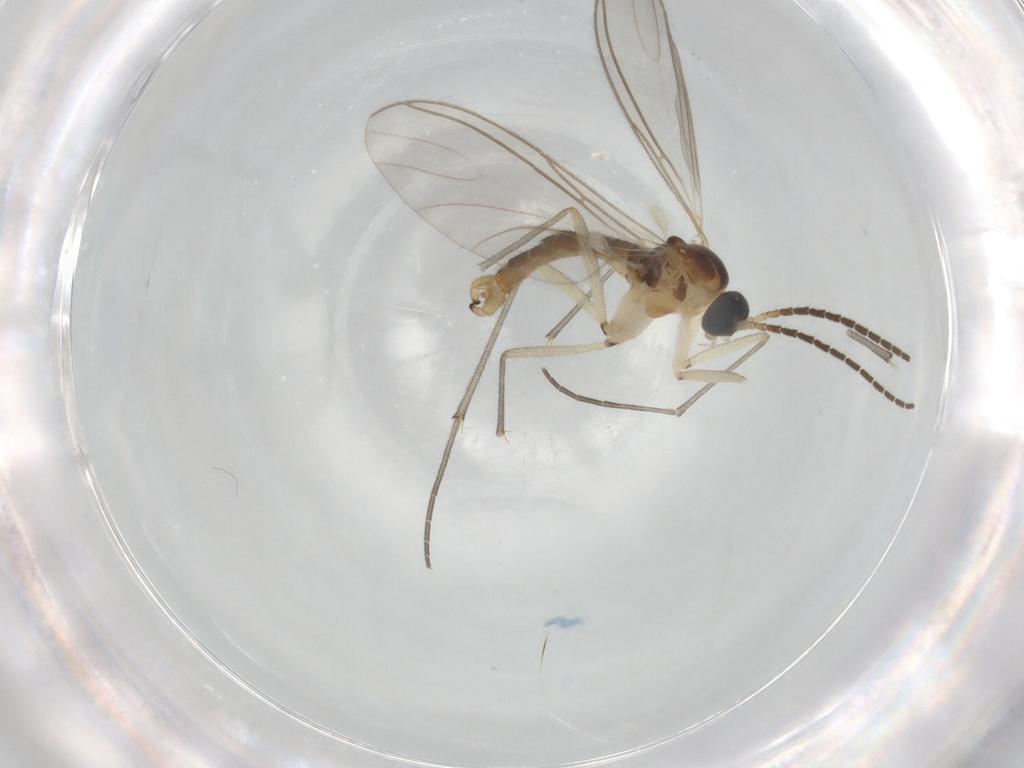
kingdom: Animalia
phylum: Arthropoda
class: Insecta
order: Diptera
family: Sciaridae
